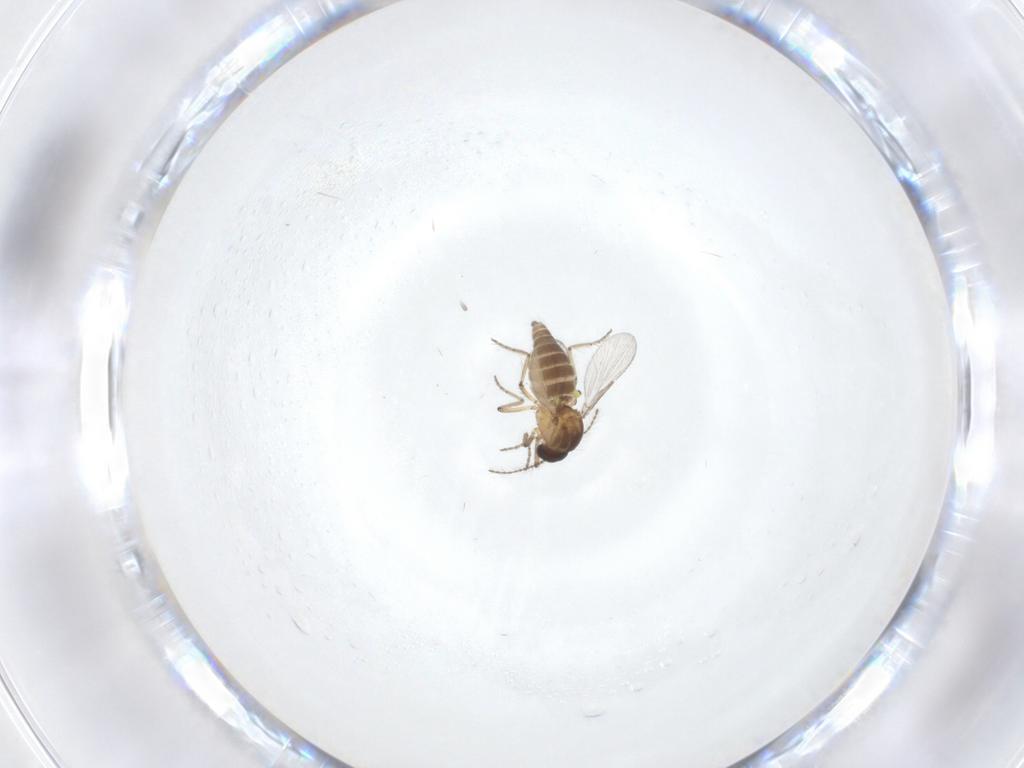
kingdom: Animalia
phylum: Arthropoda
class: Insecta
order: Diptera
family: Ceratopogonidae
